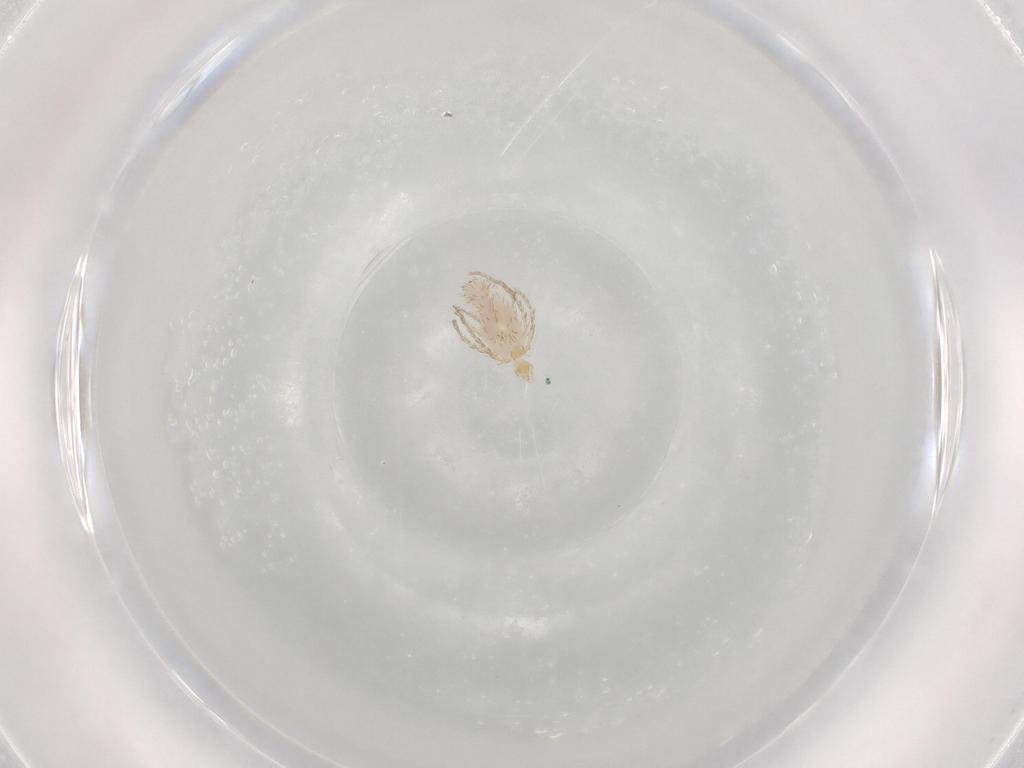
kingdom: Animalia
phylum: Arthropoda
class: Arachnida
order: Trombidiformes
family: Erythraeidae
